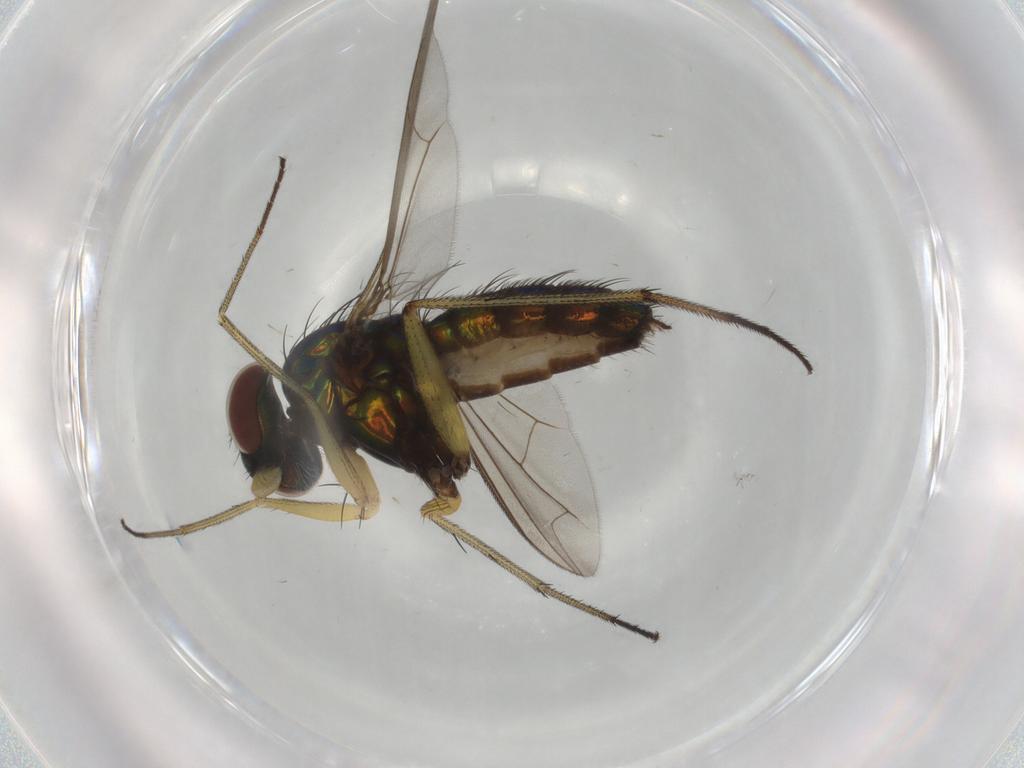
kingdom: Animalia
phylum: Arthropoda
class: Insecta
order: Diptera
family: Dolichopodidae
